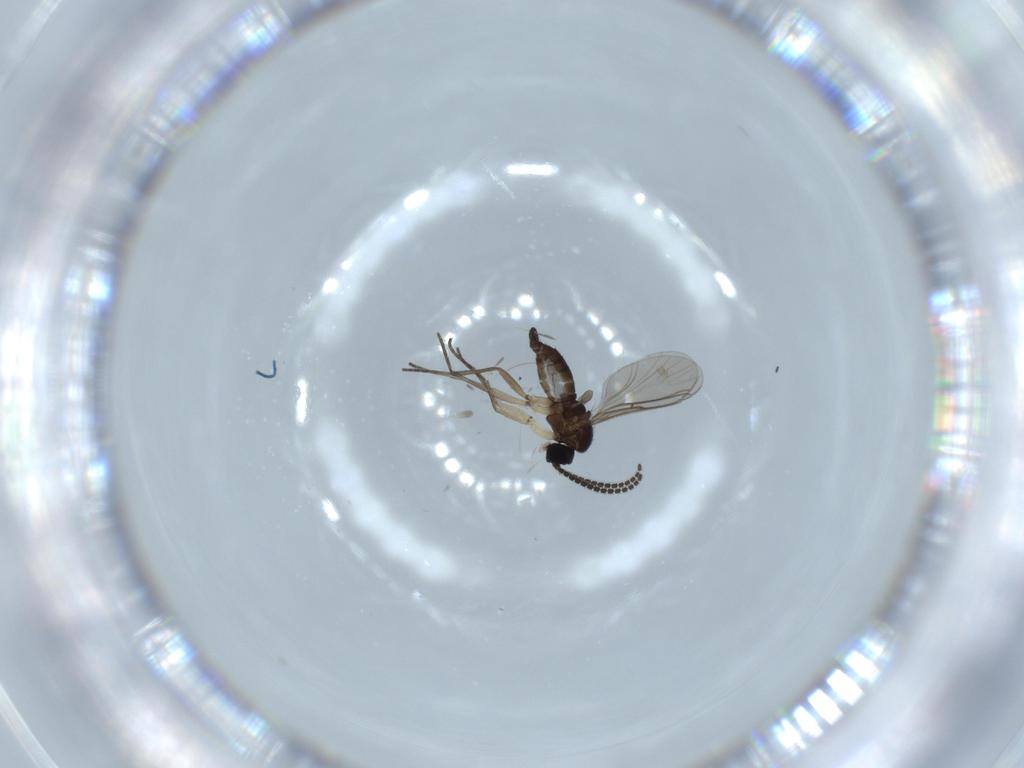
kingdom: Animalia
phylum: Arthropoda
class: Insecta
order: Diptera
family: Sciaridae
